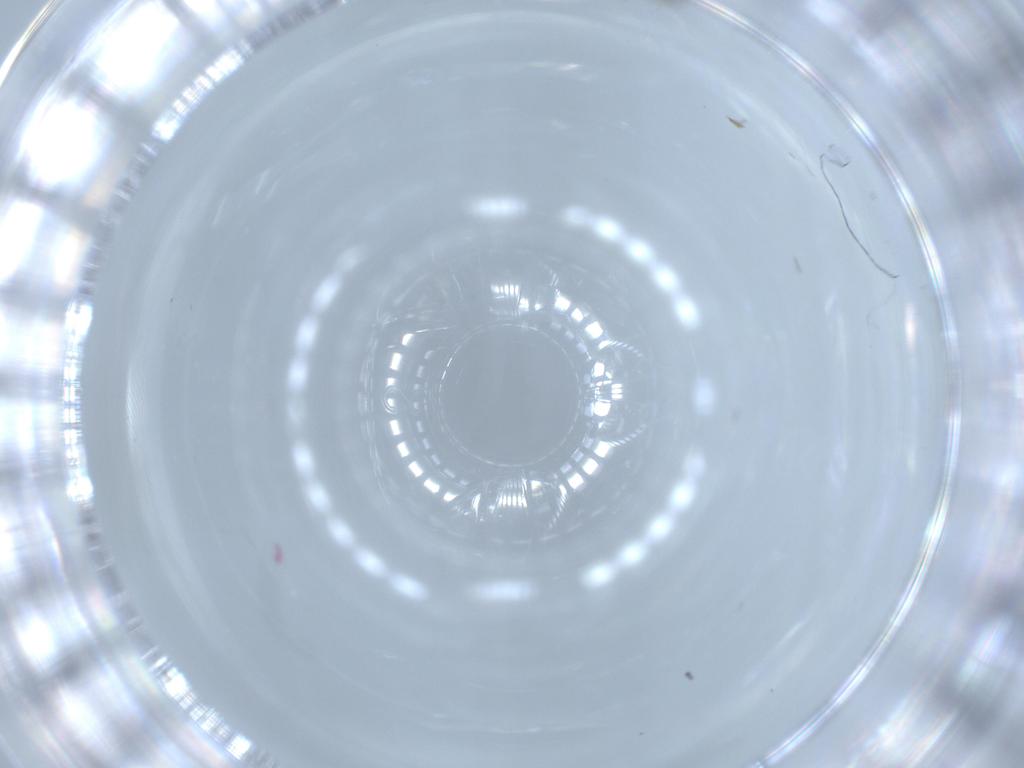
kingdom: Animalia
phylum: Arthropoda
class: Insecta
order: Diptera
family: Drosophilidae
